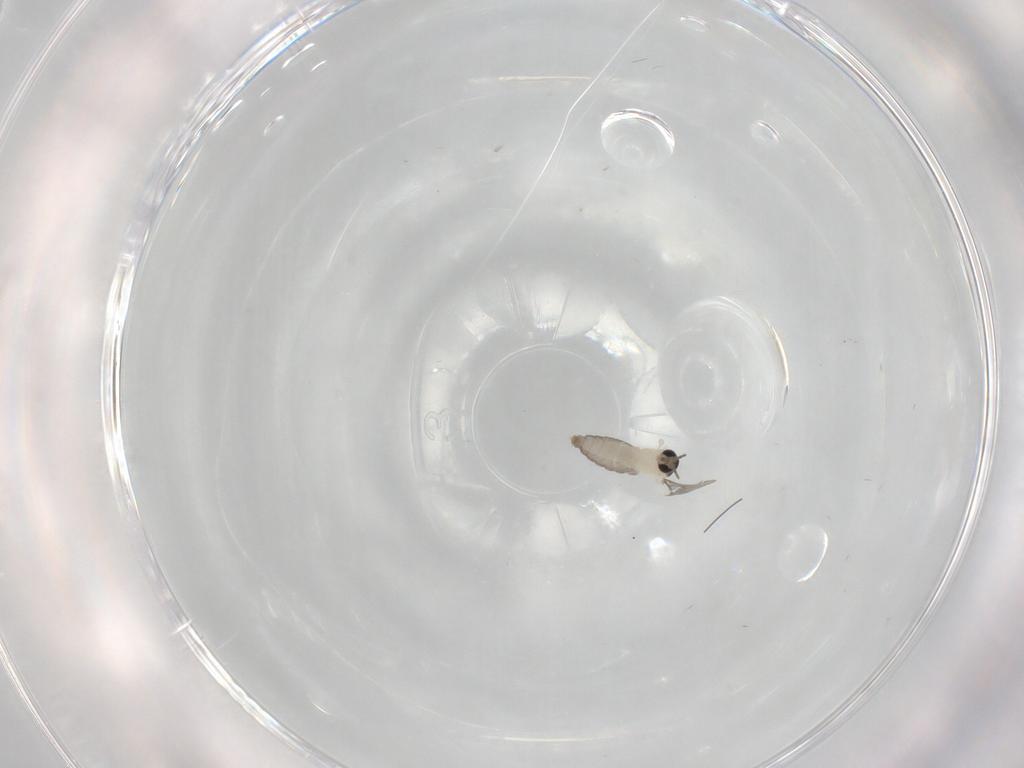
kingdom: Animalia
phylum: Arthropoda
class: Insecta
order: Diptera
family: Cecidomyiidae
